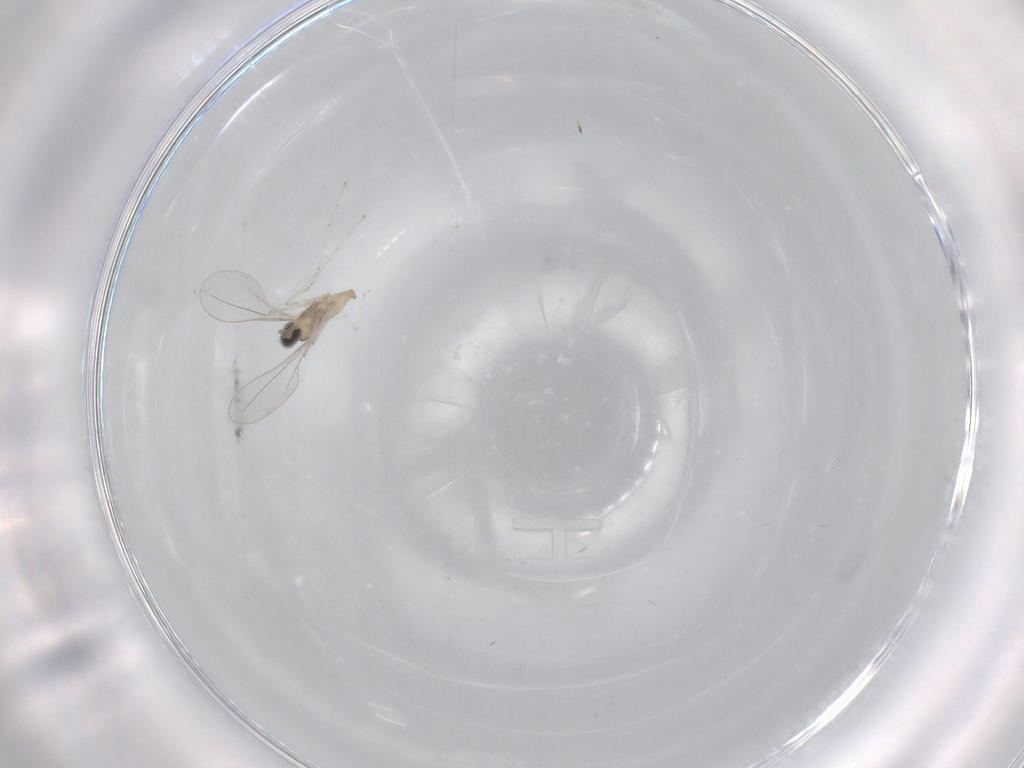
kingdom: Animalia
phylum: Arthropoda
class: Insecta
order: Diptera
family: Cecidomyiidae
